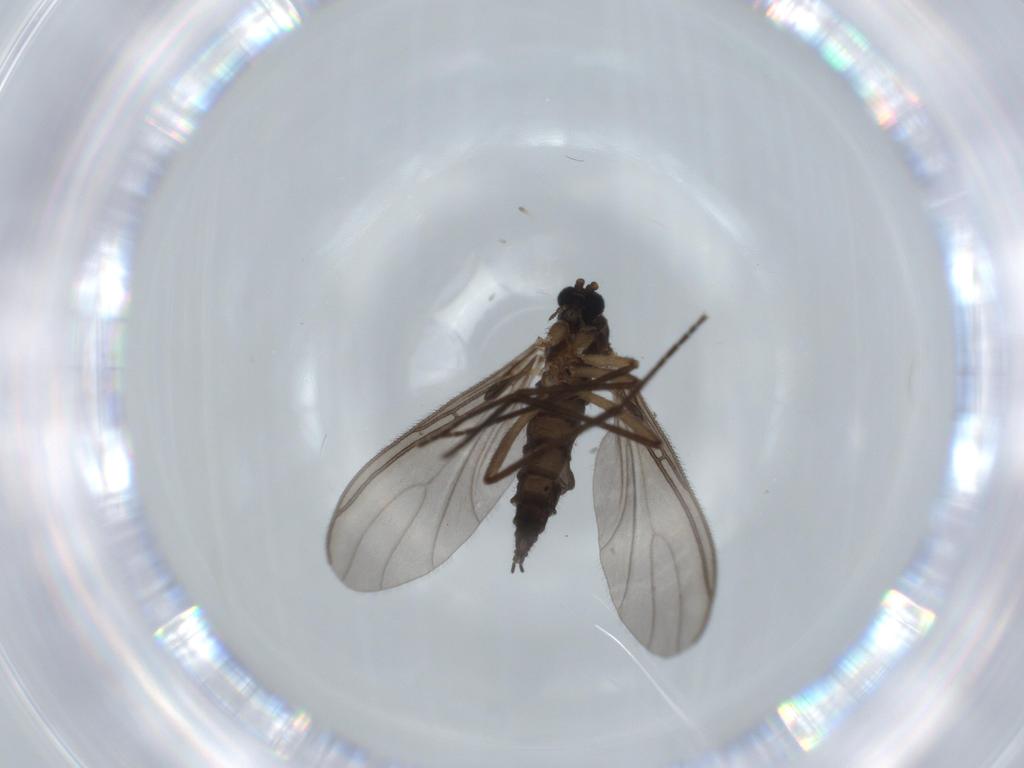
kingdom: Animalia
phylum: Arthropoda
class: Insecta
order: Diptera
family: Sciaridae
